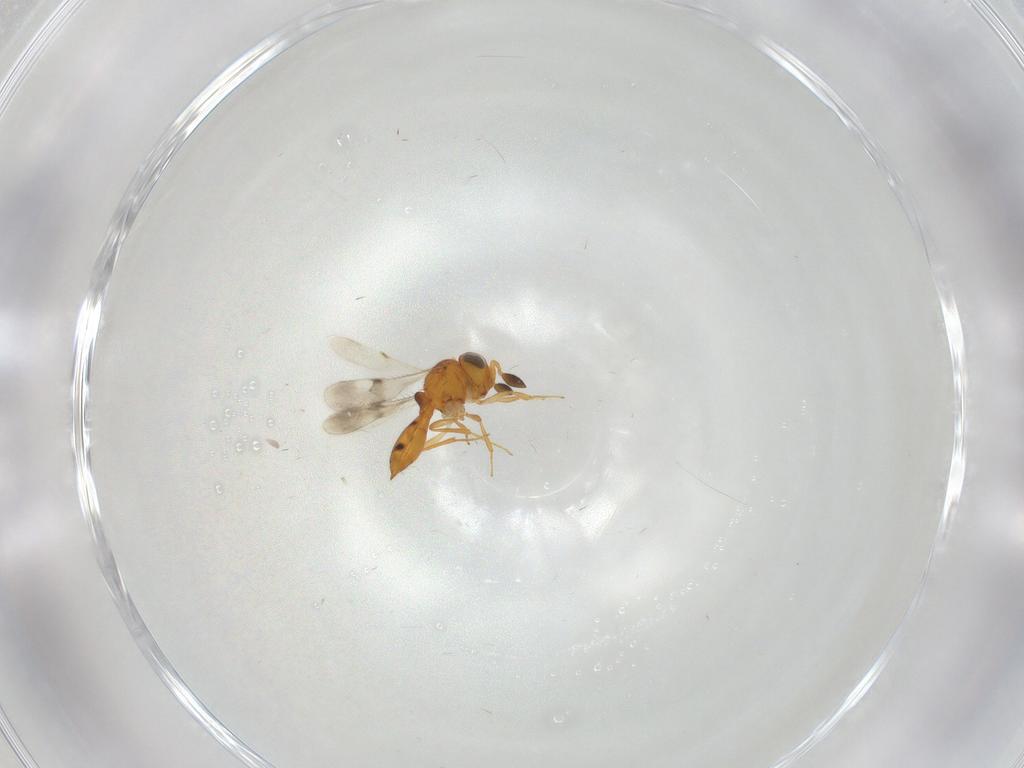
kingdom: Animalia
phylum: Arthropoda
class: Insecta
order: Hymenoptera
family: Scelionidae
